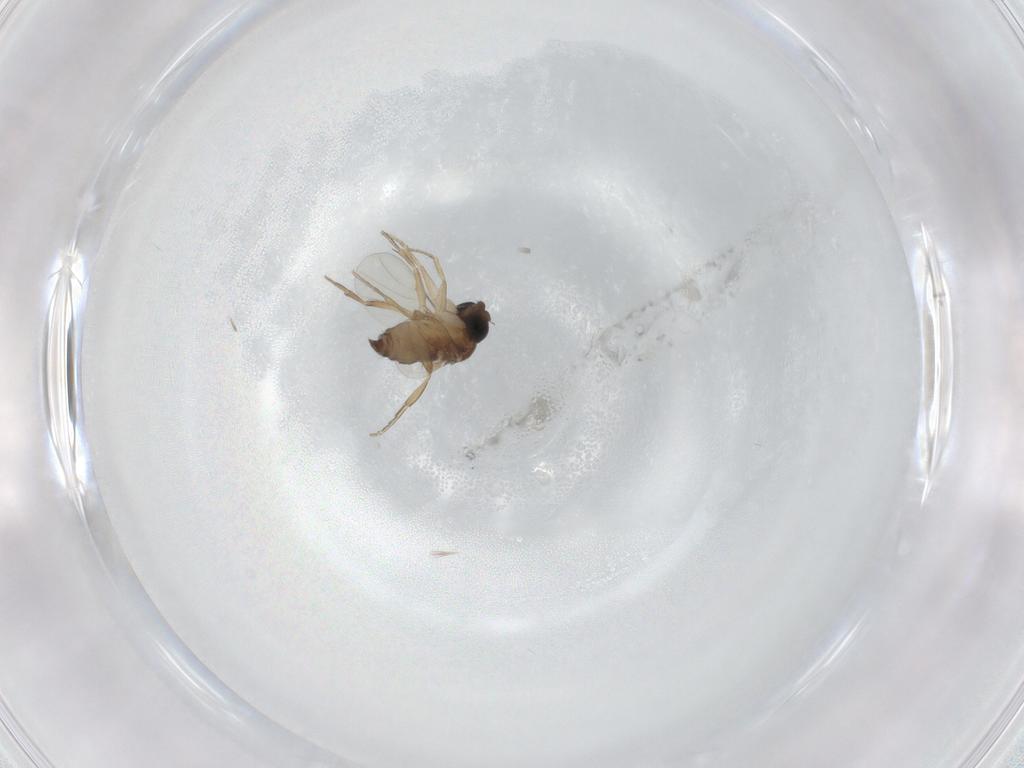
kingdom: Animalia
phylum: Arthropoda
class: Insecta
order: Diptera
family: Phoridae
